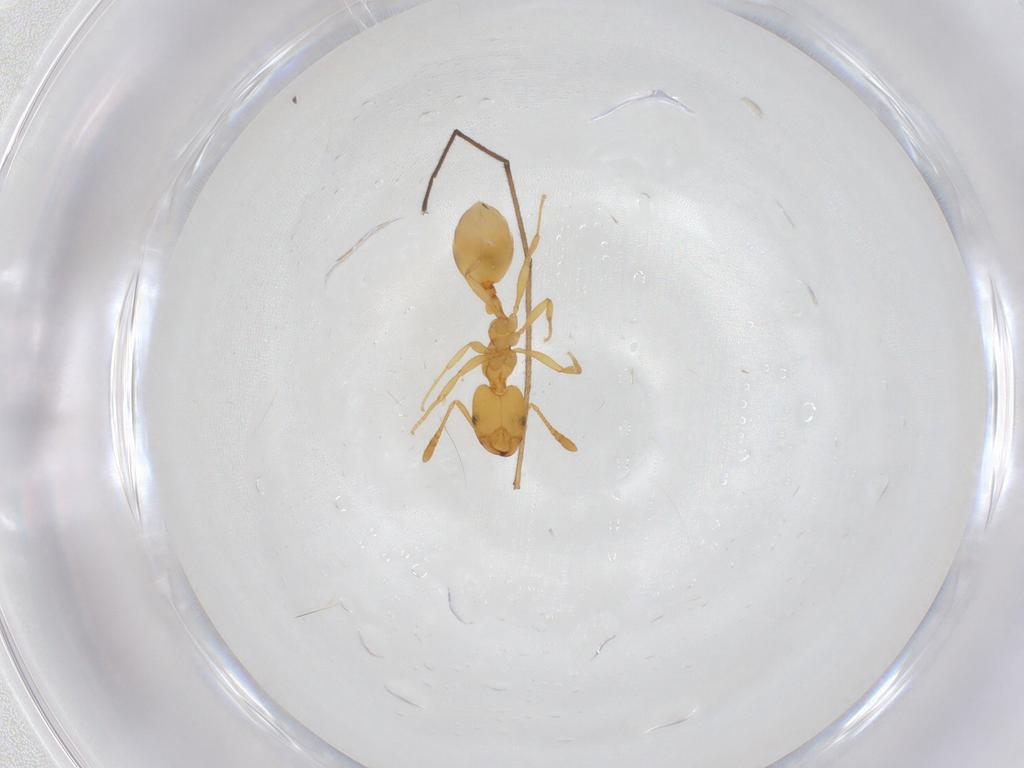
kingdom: Animalia
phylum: Arthropoda
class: Insecta
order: Hymenoptera
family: Formicidae
